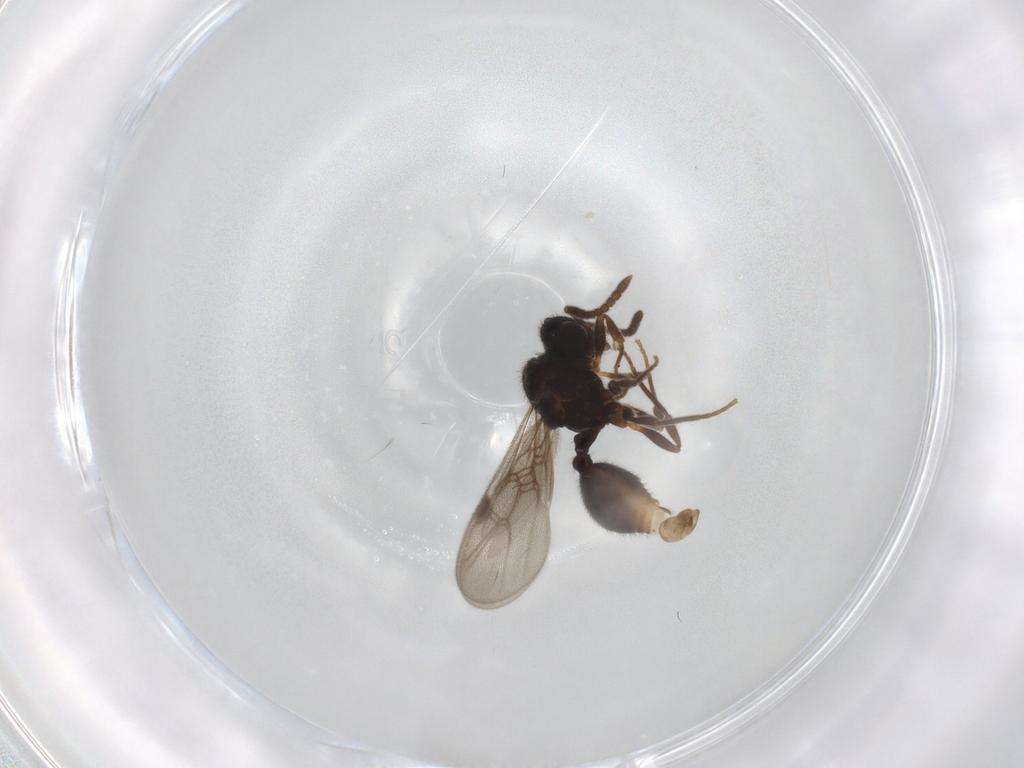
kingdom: Animalia
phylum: Arthropoda
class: Insecta
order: Hymenoptera
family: Formicidae
